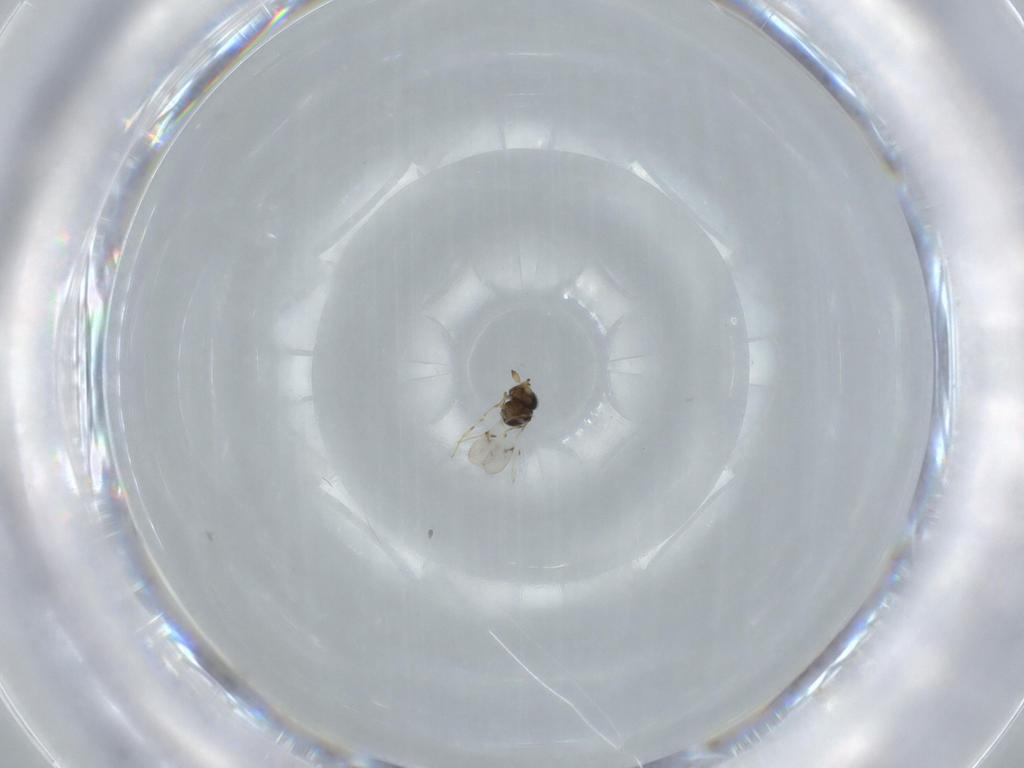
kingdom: Animalia
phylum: Arthropoda
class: Insecta
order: Hymenoptera
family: Scelionidae
